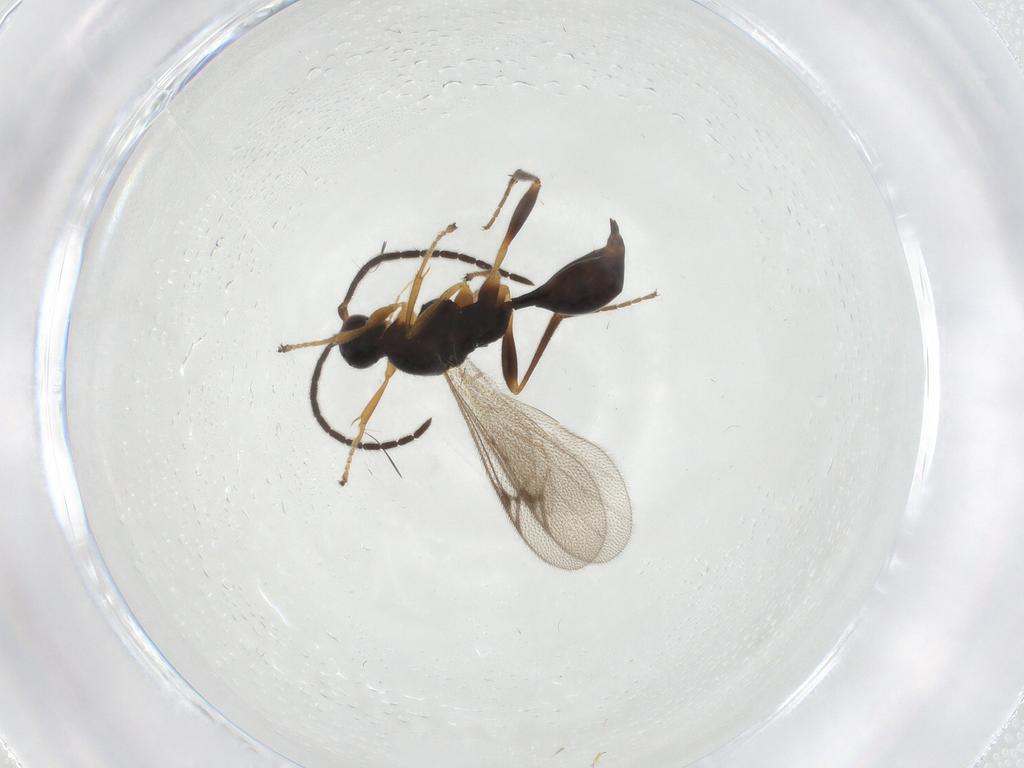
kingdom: Animalia
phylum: Arthropoda
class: Insecta
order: Hymenoptera
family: Proctotrupidae
